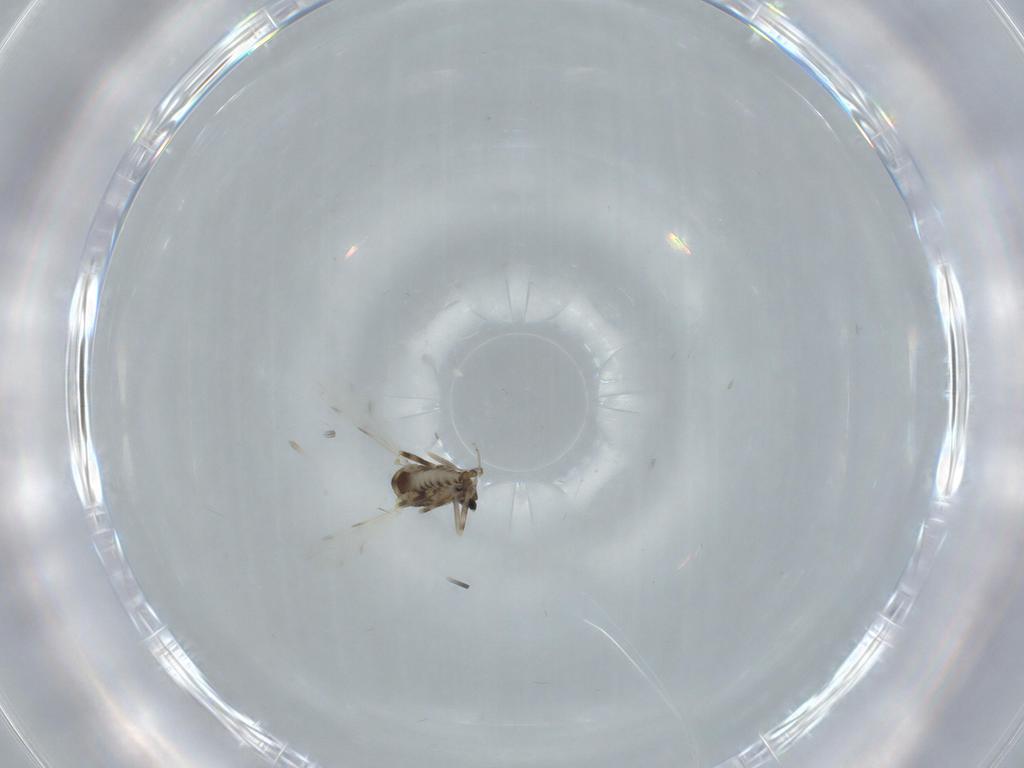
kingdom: Animalia
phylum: Arthropoda
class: Insecta
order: Diptera
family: Ceratopogonidae
